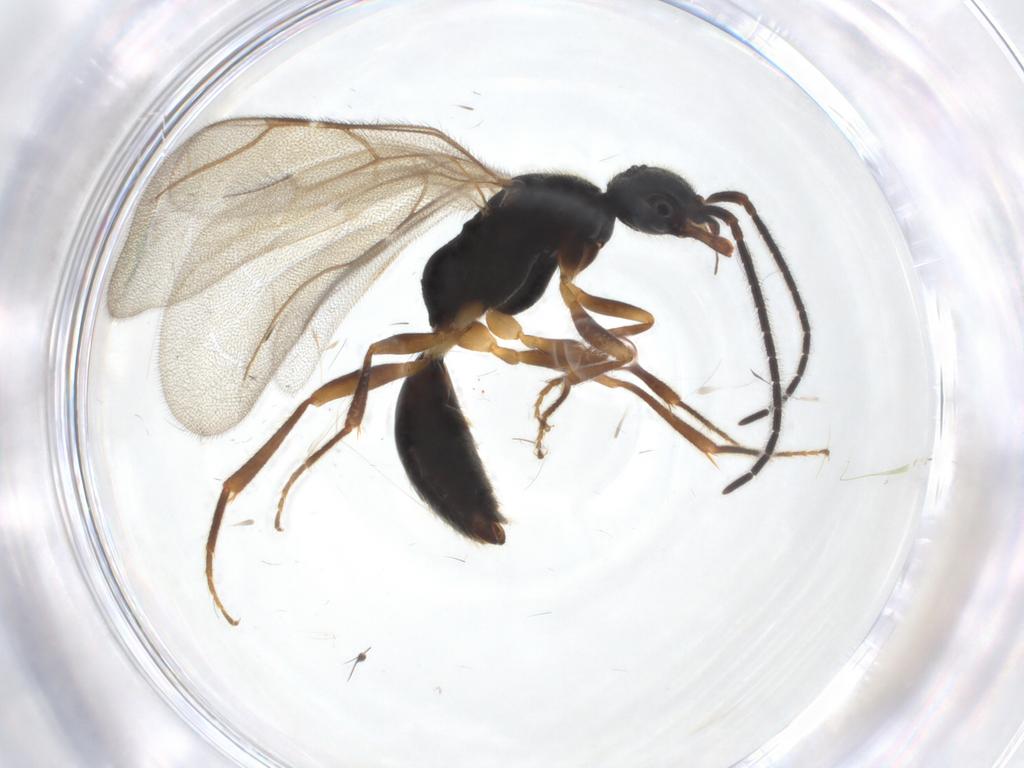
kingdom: Animalia
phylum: Arthropoda
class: Insecta
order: Hymenoptera
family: Bethylidae
